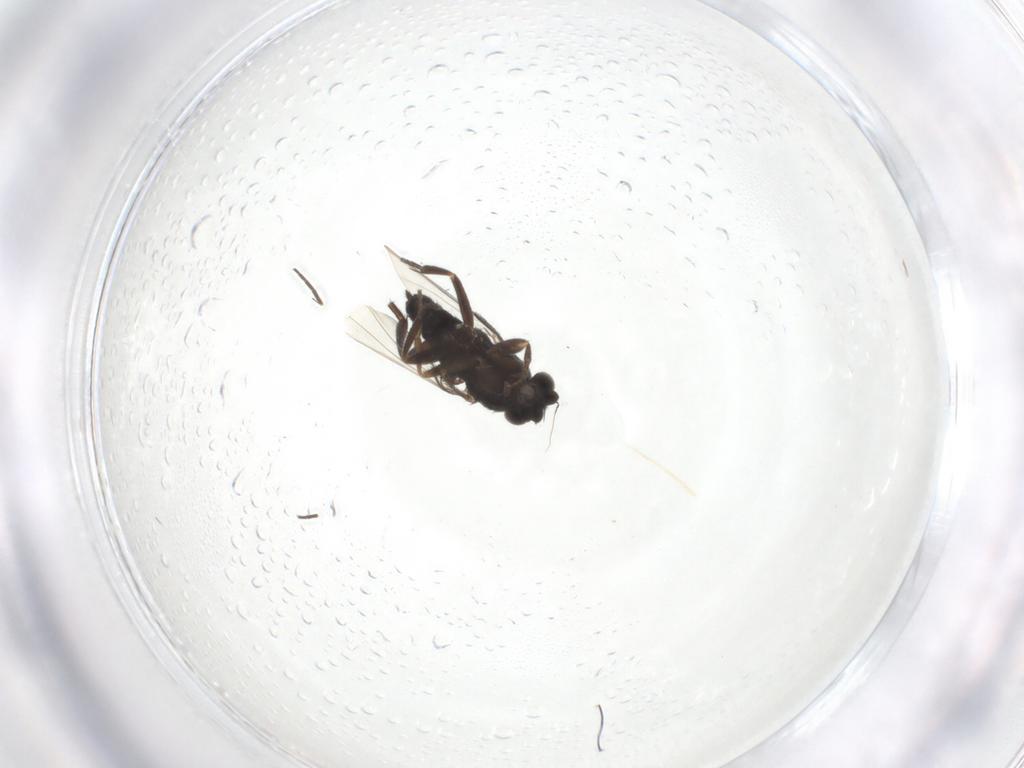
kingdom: Animalia
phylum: Arthropoda
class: Insecta
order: Diptera
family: Phoridae
